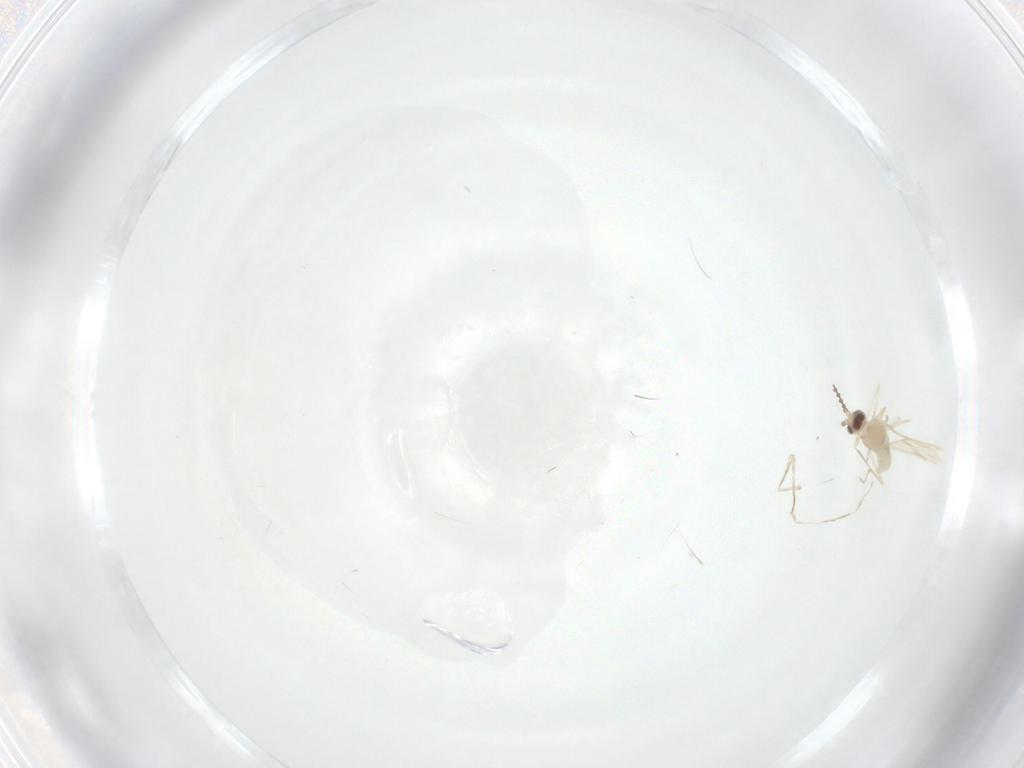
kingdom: Animalia
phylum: Arthropoda
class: Insecta
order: Diptera
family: Cecidomyiidae
